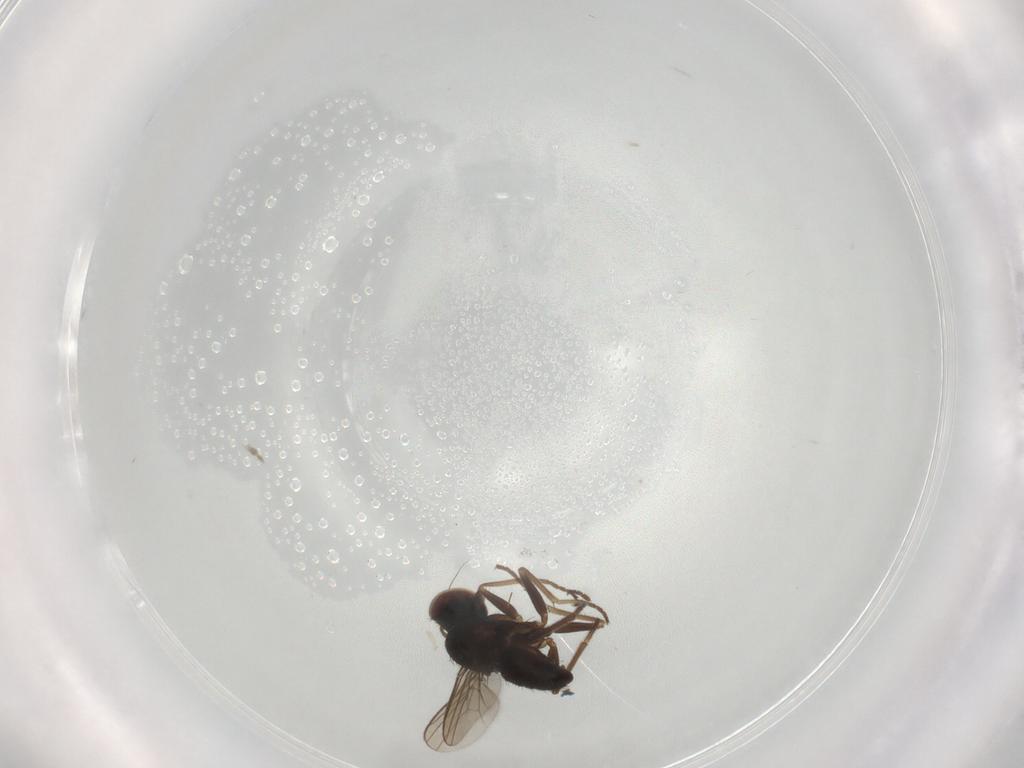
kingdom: Animalia
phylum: Arthropoda
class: Insecta
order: Diptera
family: Dolichopodidae
